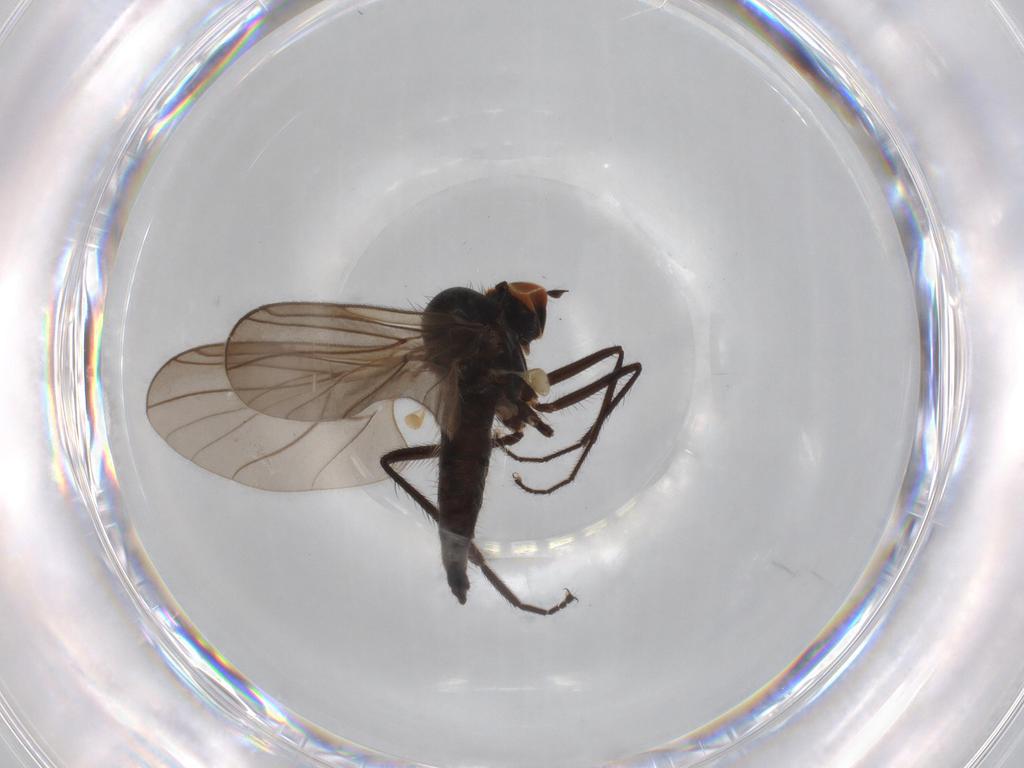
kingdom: Animalia
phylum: Arthropoda
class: Insecta
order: Diptera
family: Hybotidae
